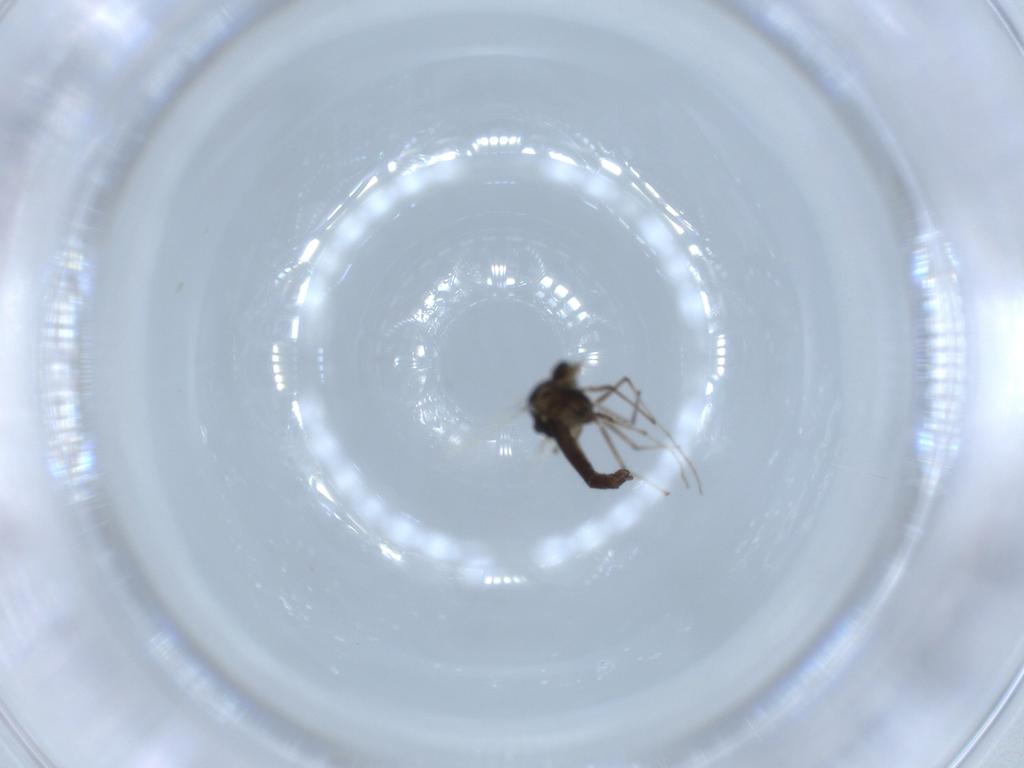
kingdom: Animalia
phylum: Arthropoda
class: Insecta
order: Diptera
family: Chironomidae
